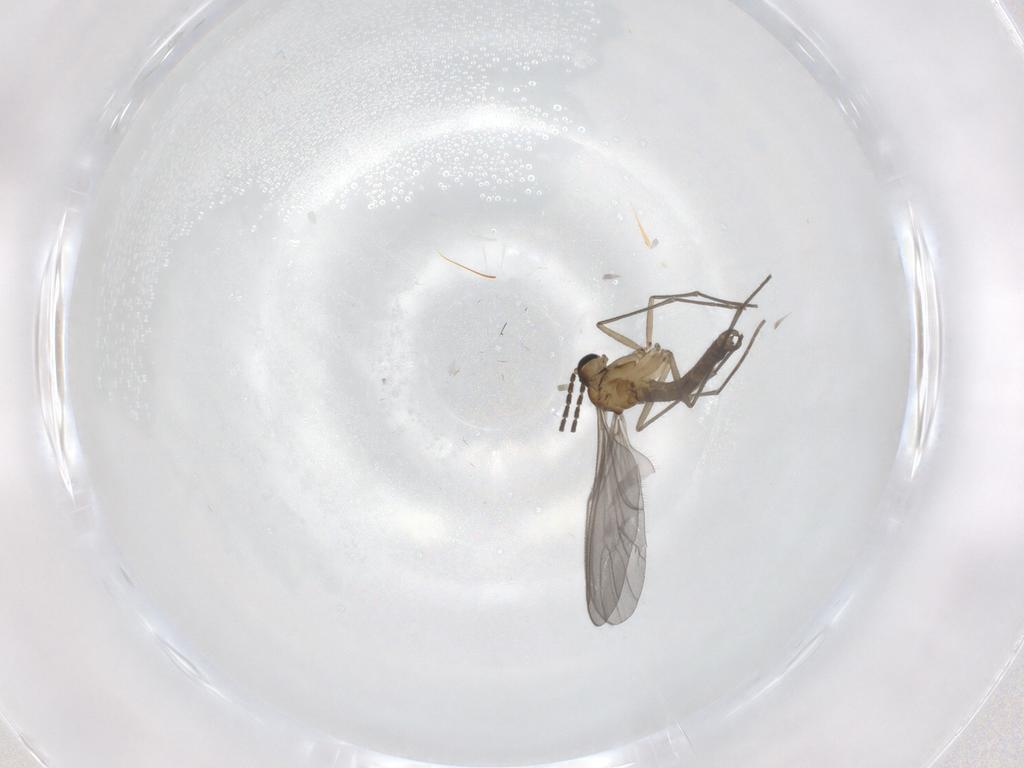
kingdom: Animalia
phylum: Arthropoda
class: Insecta
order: Diptera
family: Sciaridae
